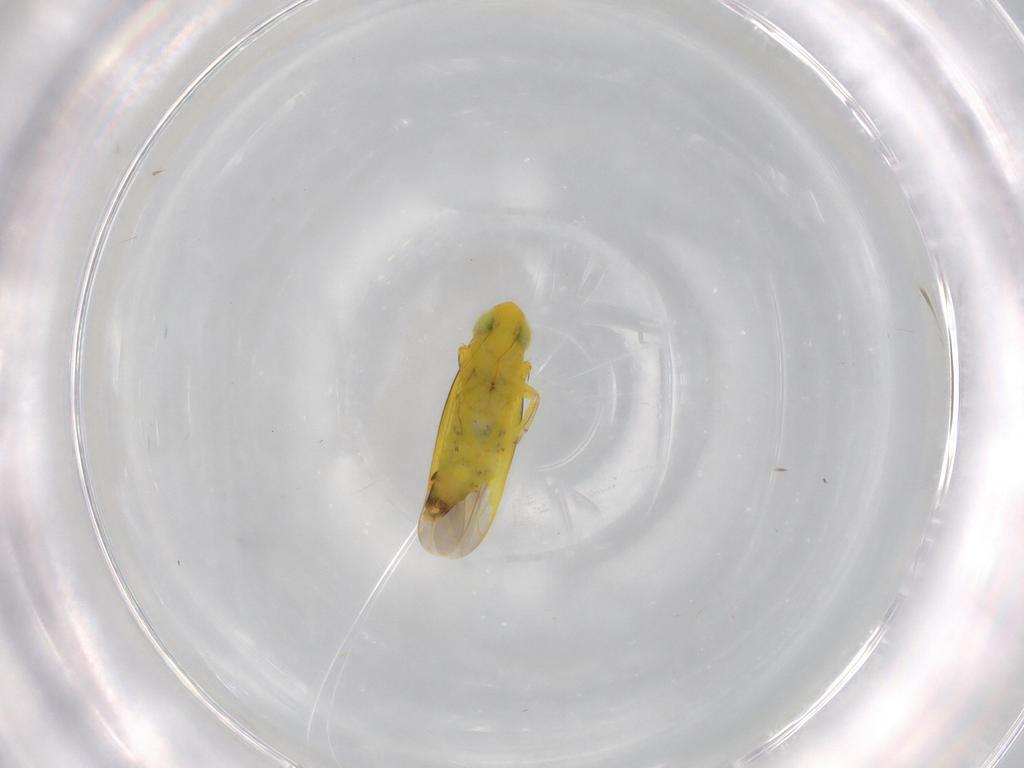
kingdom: Animalia
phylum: Arthropoda
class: Insecta
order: Hemiptera
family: Cicadellidae
